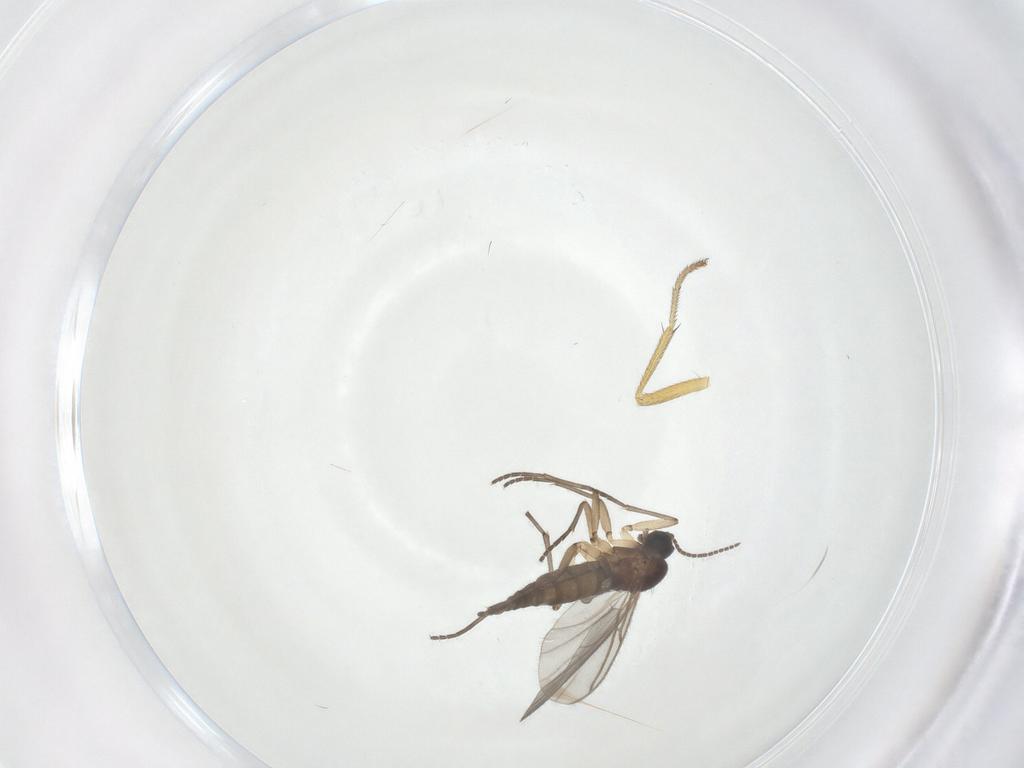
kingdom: Animalia
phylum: Arthropoda
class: Insecta
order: Diptera
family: Sciaridae
